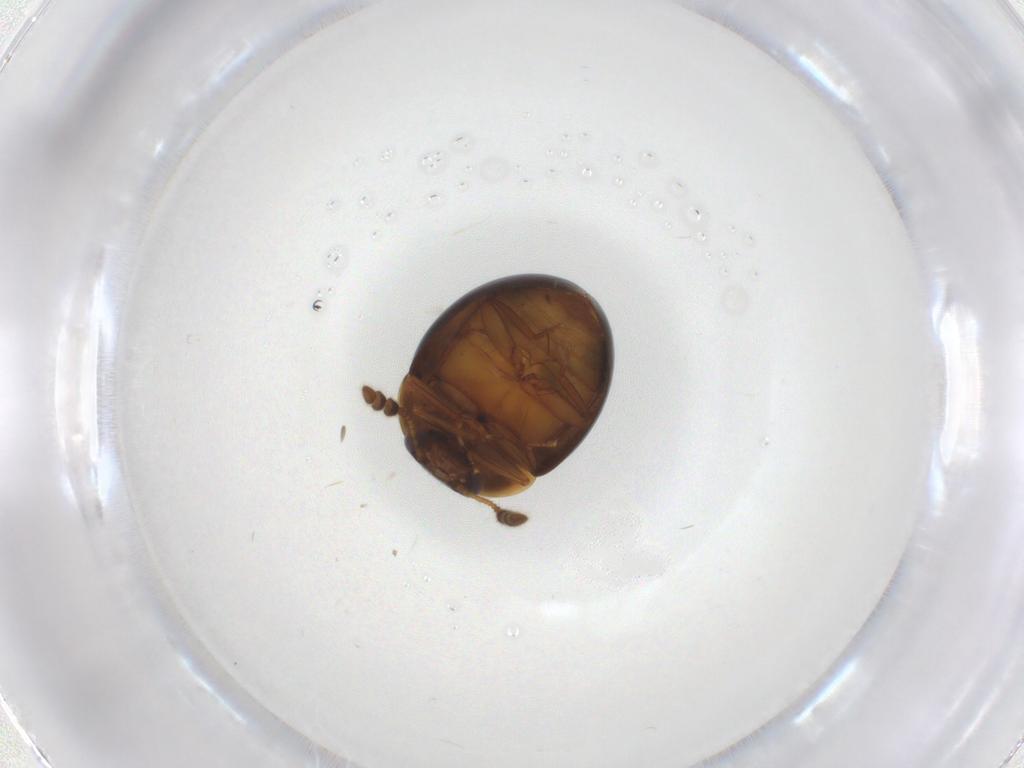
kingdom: Animalia
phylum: Arthropoda
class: Insecta
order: Coleoptera
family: Leiodidae
